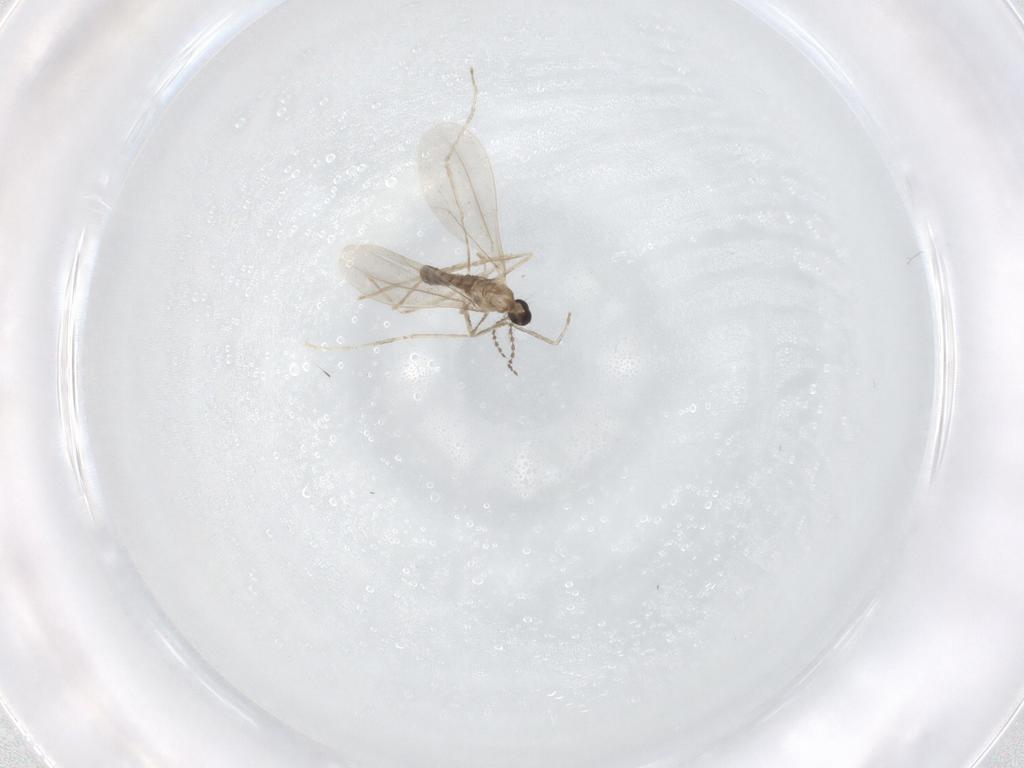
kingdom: Animalia
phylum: Arthropoda
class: Insecta
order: Diptera
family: Cecidomyiidae
